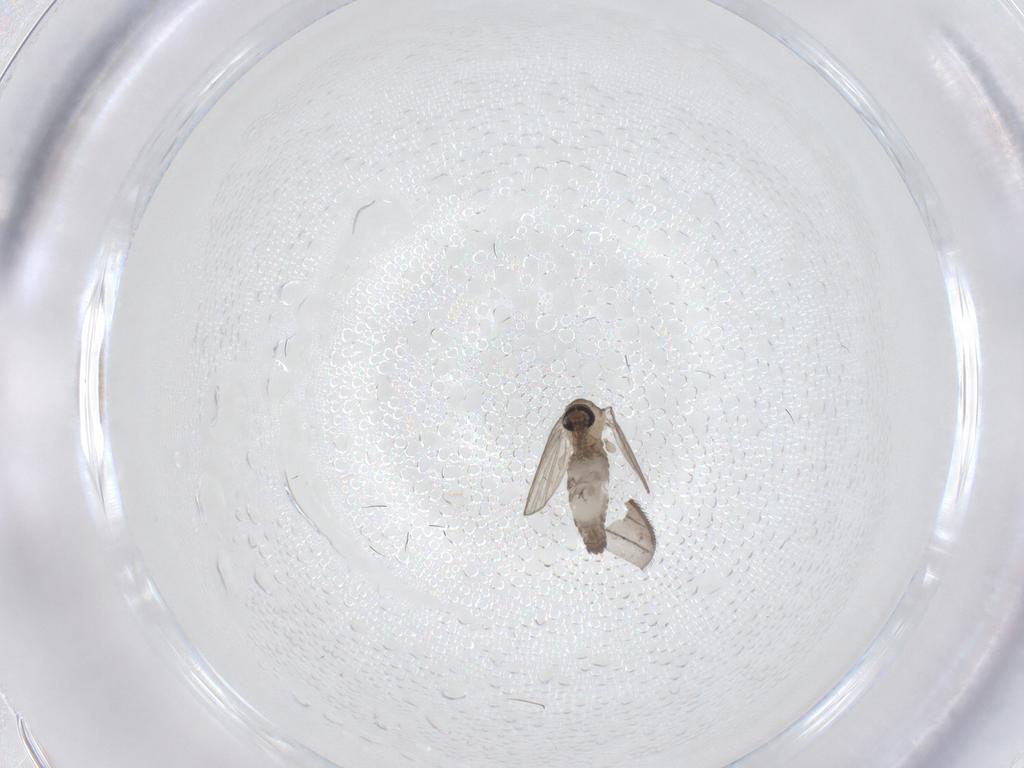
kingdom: Animalia
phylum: Arthropoda
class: Insecta
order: Diptera
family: Psychodidae
